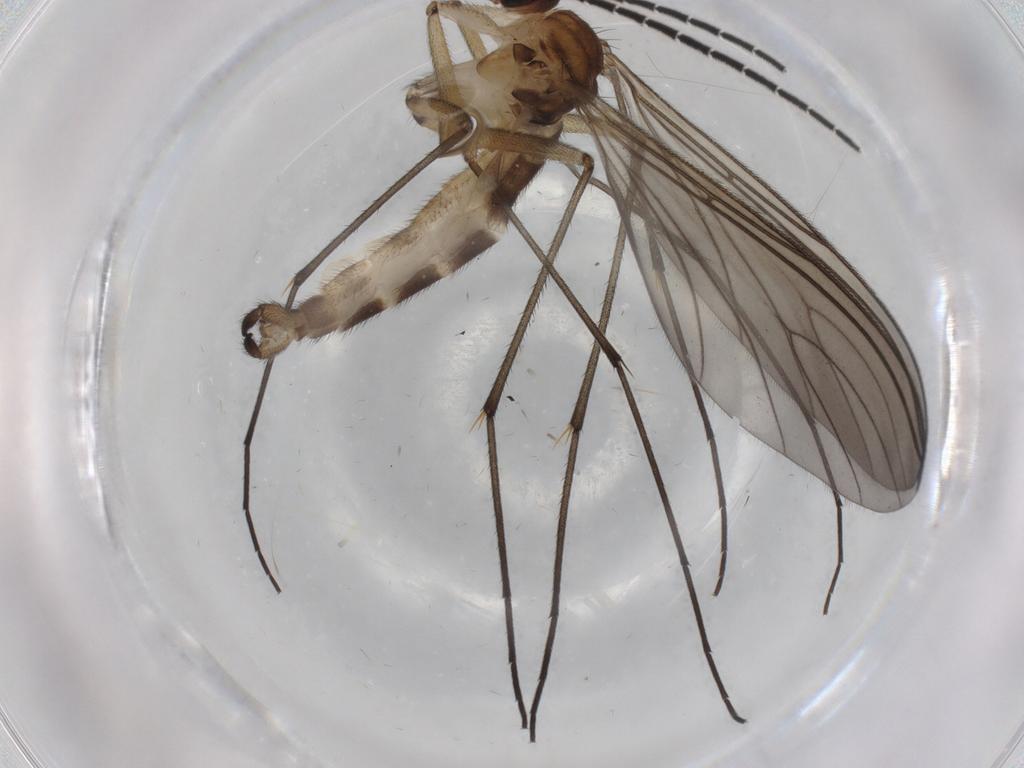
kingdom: Animalia
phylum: Arthropoda
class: Insecta
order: Diptera
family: Sciaridae
